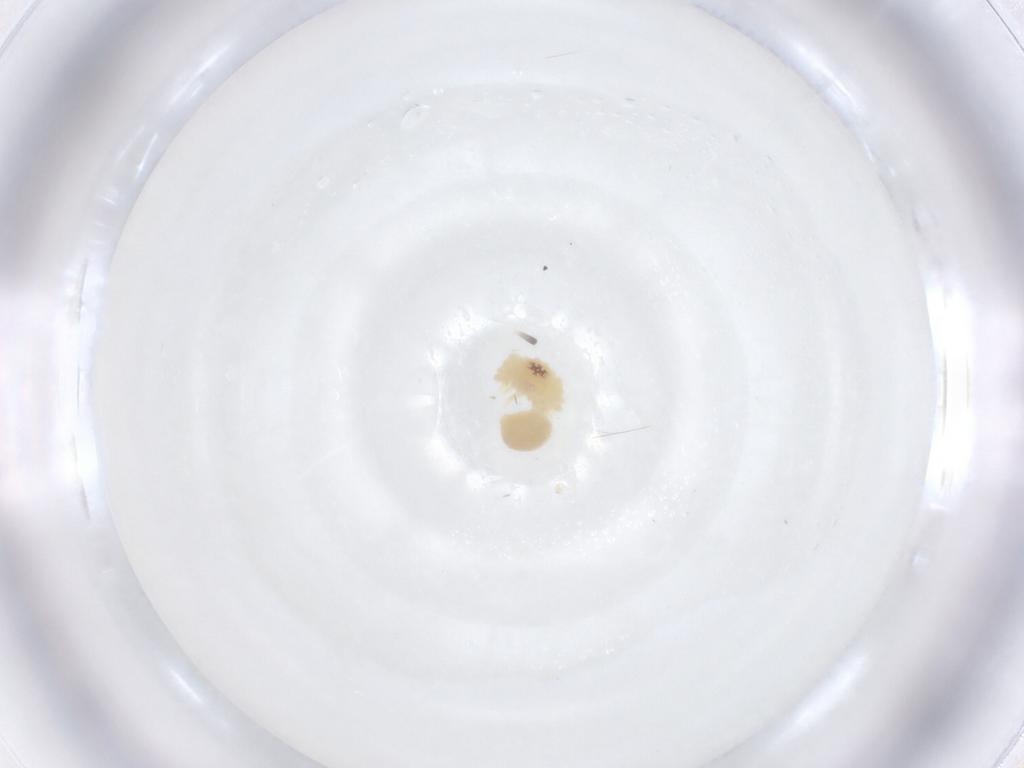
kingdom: Animalia
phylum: Arthropoda
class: Arachnida
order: Araneae
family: Pholcidae
